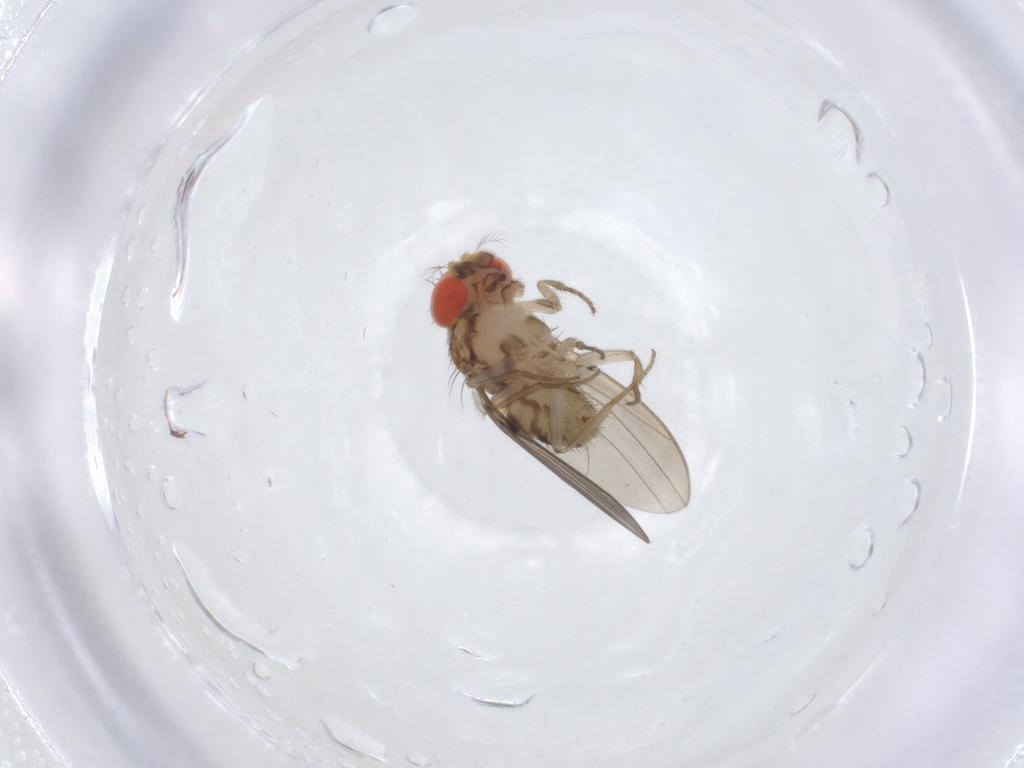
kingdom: Animalia
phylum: Arthropoda
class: Insecta
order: Diptera
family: Drosophilidae
